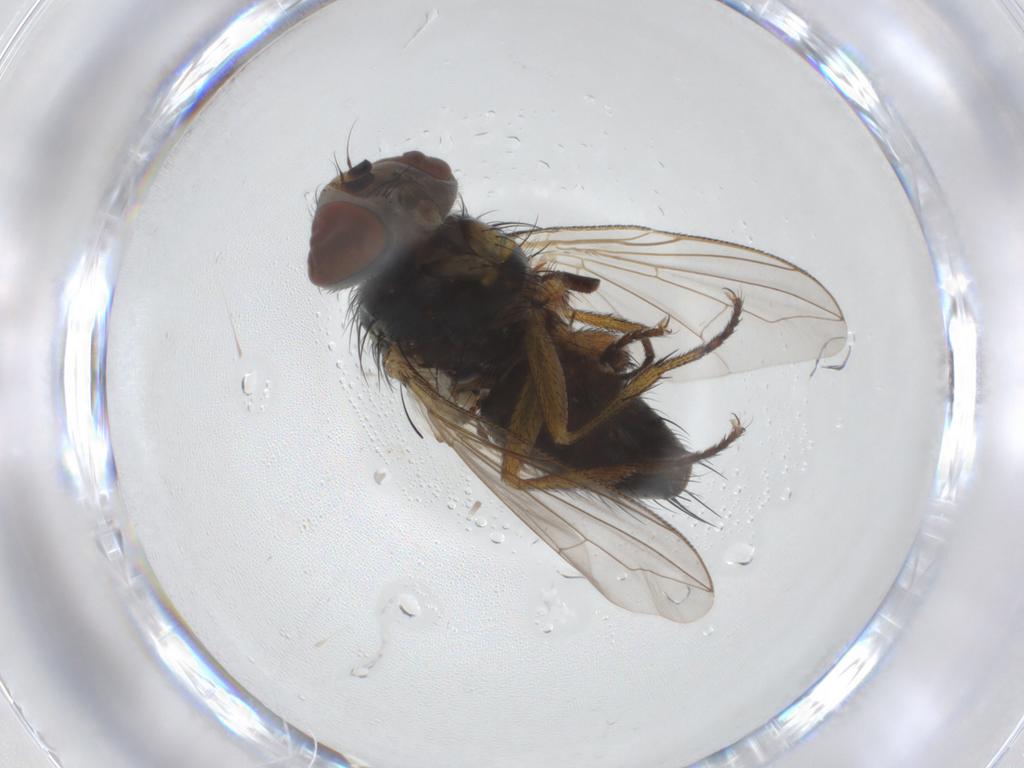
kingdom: Animalia
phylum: Arthropoda
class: Insecta
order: Diptera
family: Tachinidae
